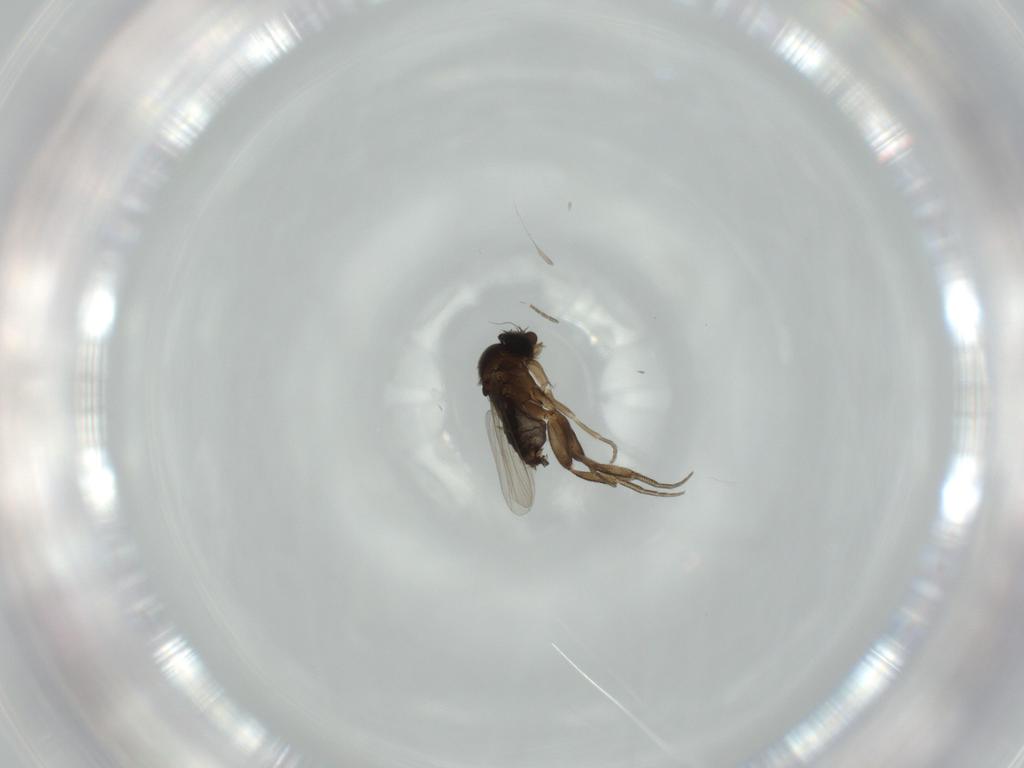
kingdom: Animalia
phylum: Arthropoda
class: Insecta
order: Diptera
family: Phoridae
